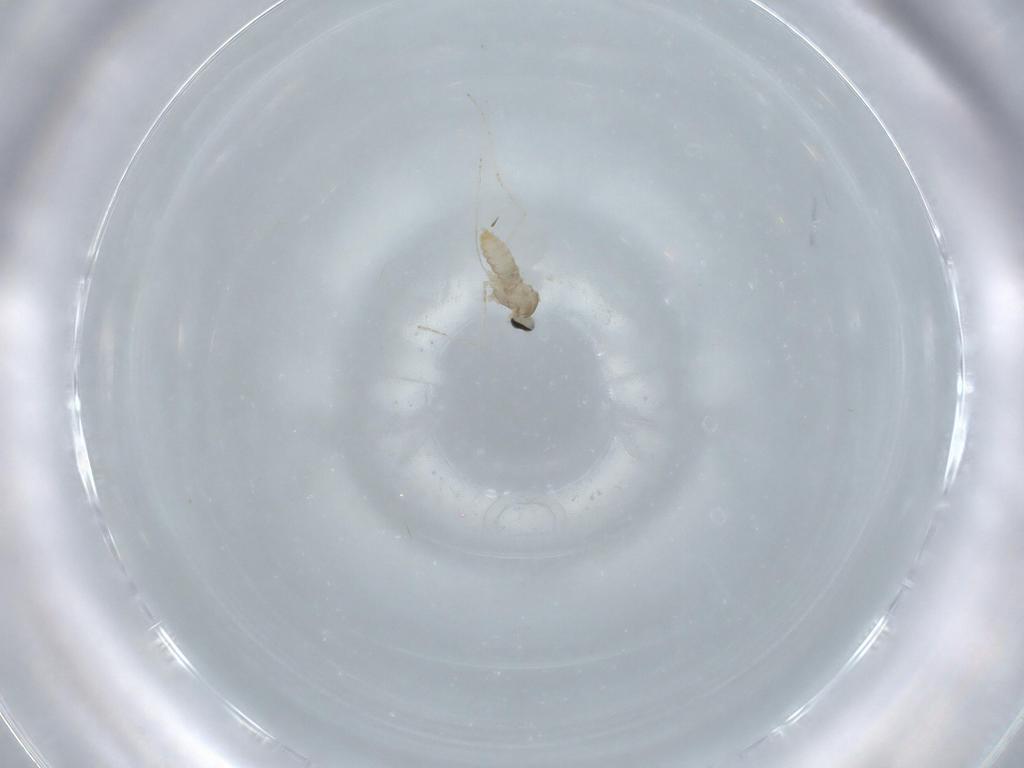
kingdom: Animalia
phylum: Arthropoda
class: Insecta
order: Diptera
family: Cecidomyiidae
